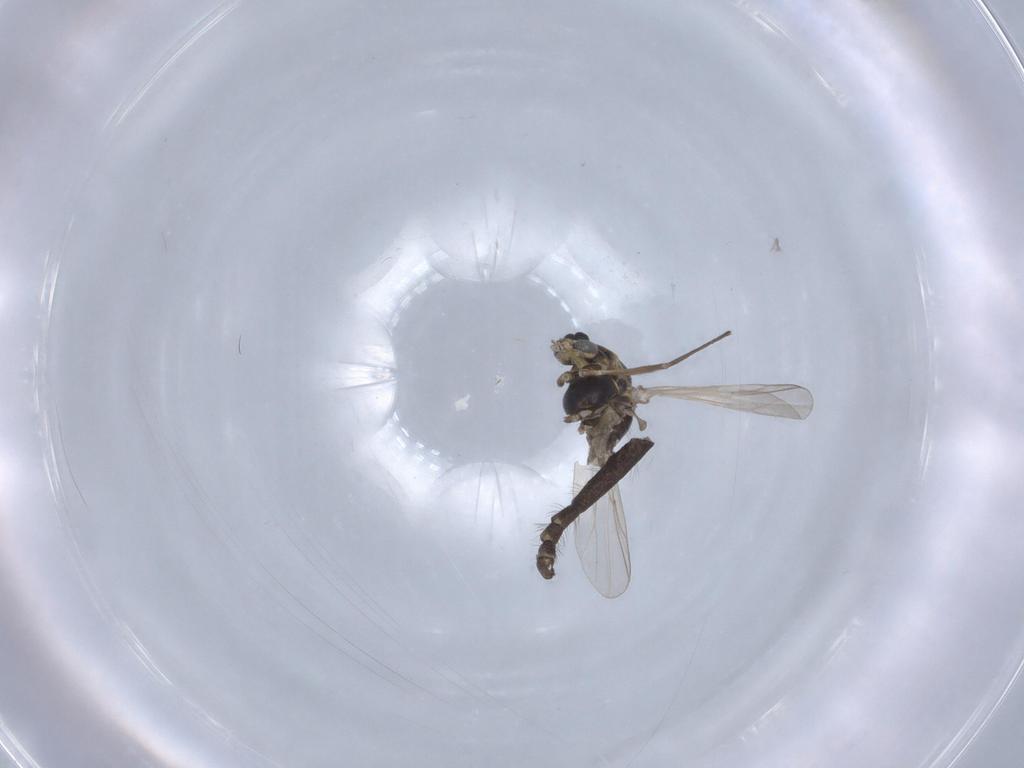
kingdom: Animalia
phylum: Arthropoda
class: Insecta
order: Diptera
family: Chironomidae
